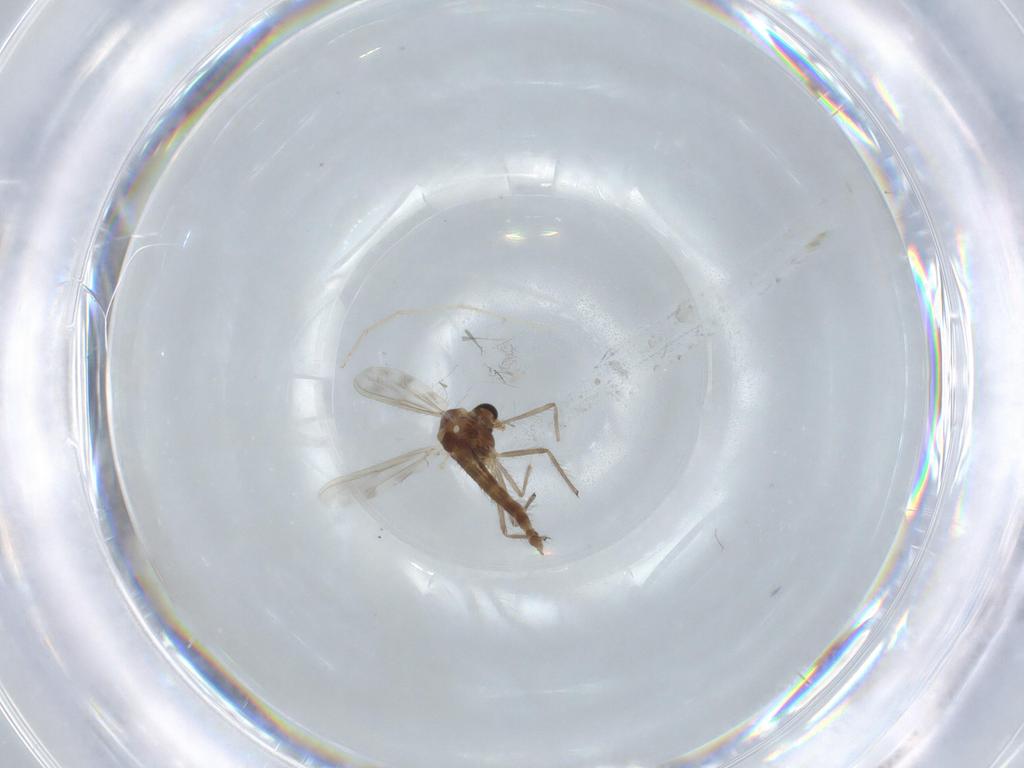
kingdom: Animalia
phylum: Arthropoda
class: Insecta
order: Diptera
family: Chironomidae
